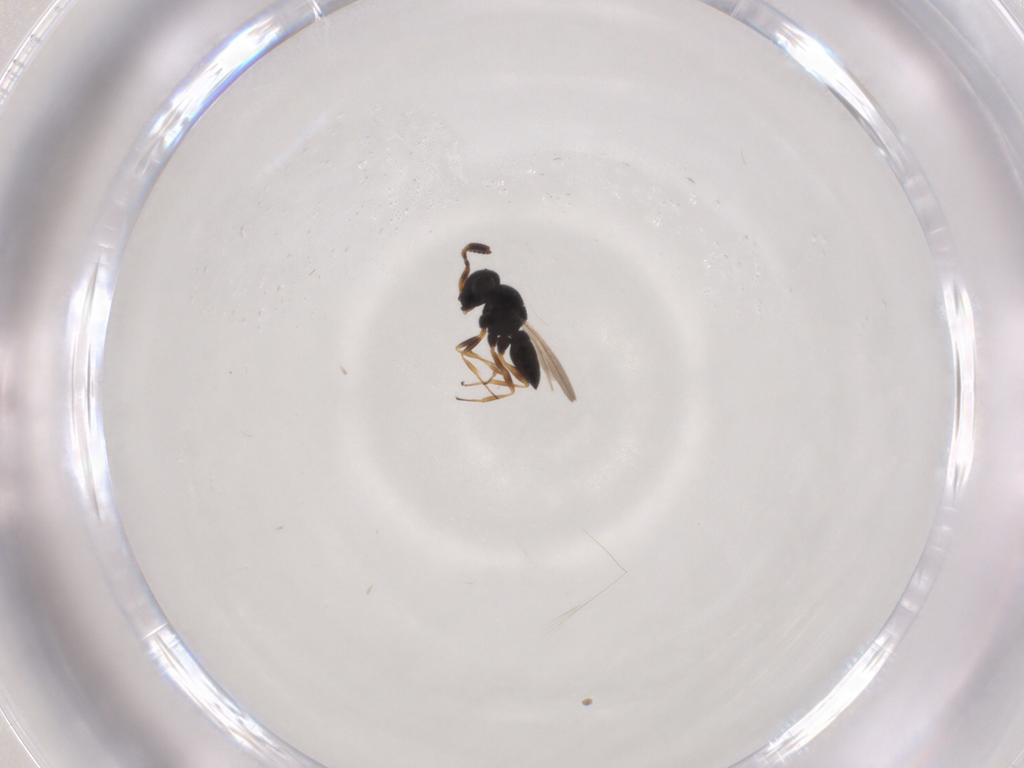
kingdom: Animalia
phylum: Arthropoda
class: Insecta
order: Hymenoptera
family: Scelionidae
